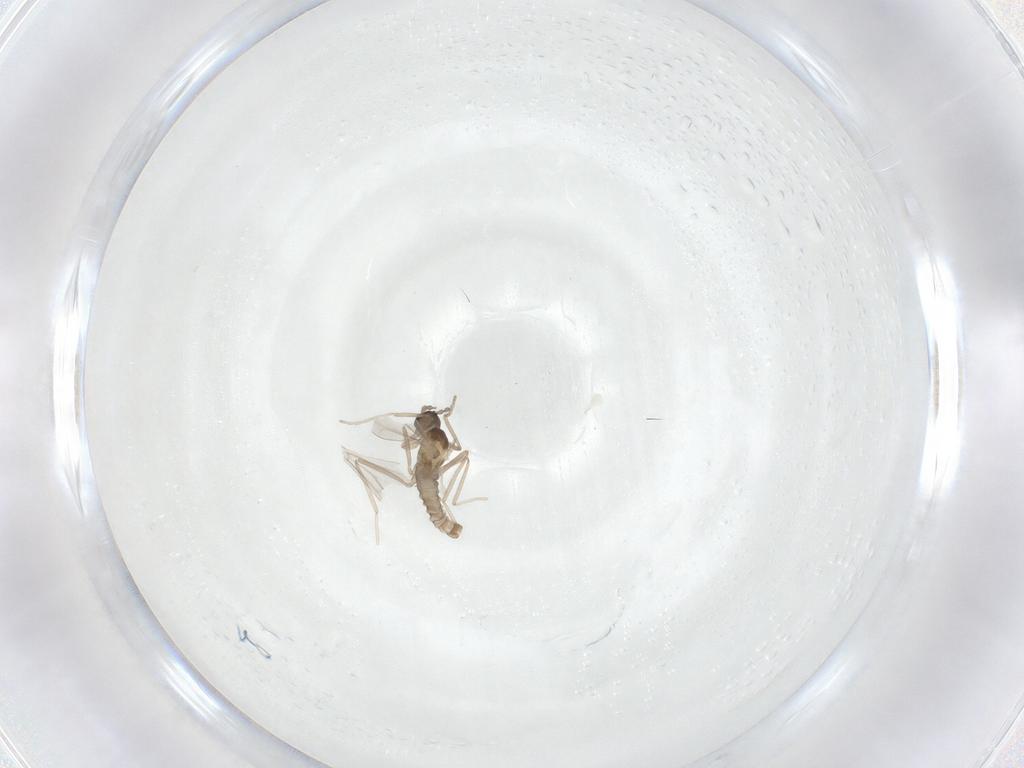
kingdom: Animalia
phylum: Arthropoda
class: Insecta
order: Diptera
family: Cecidomyiidae
